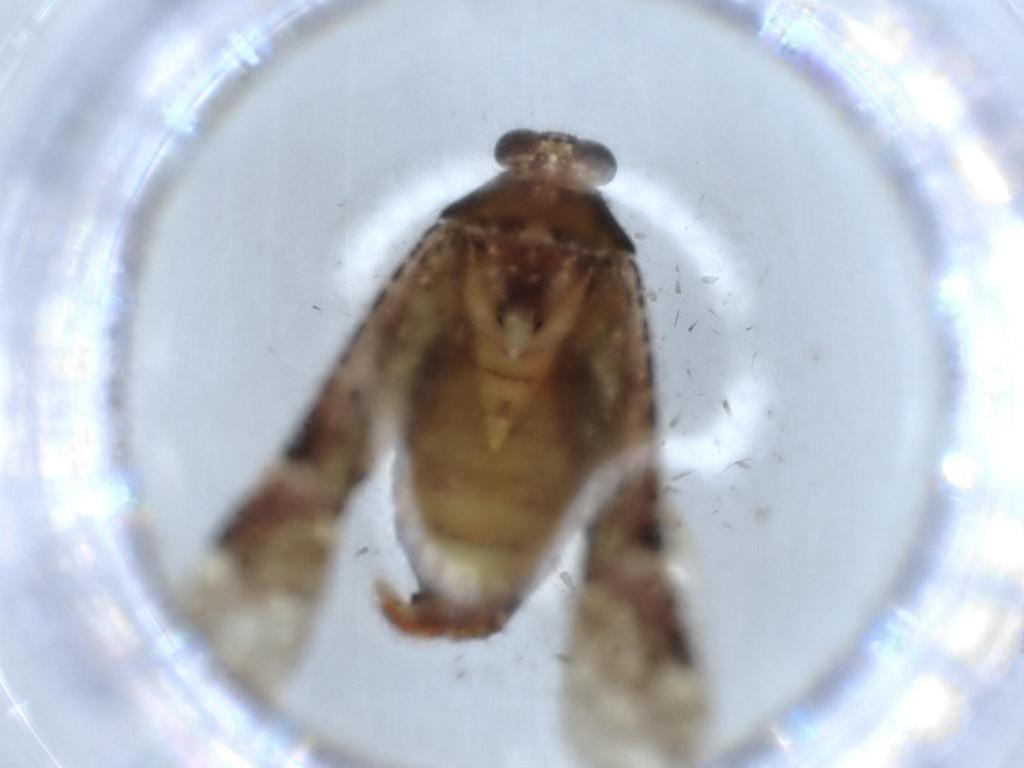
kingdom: Animalia
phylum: Arthropoda
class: Insecta
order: Hemiptera
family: Miridae
